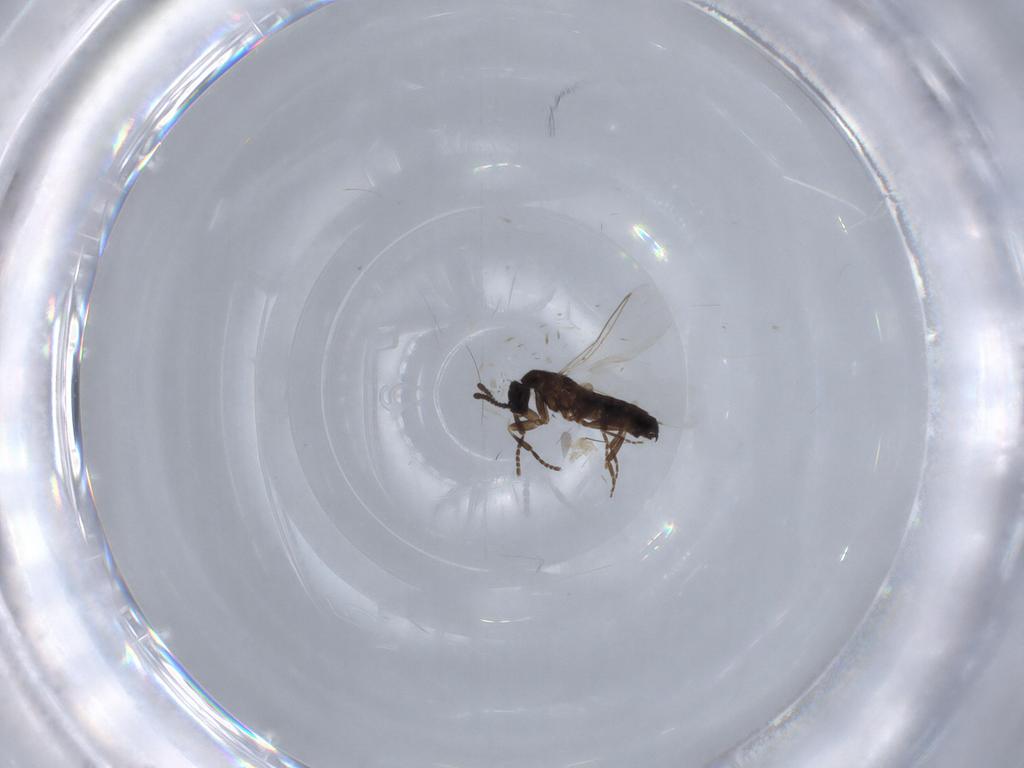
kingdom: Animalia
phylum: Arthropoda
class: Insecta
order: Diptera
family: Scatopsidae
